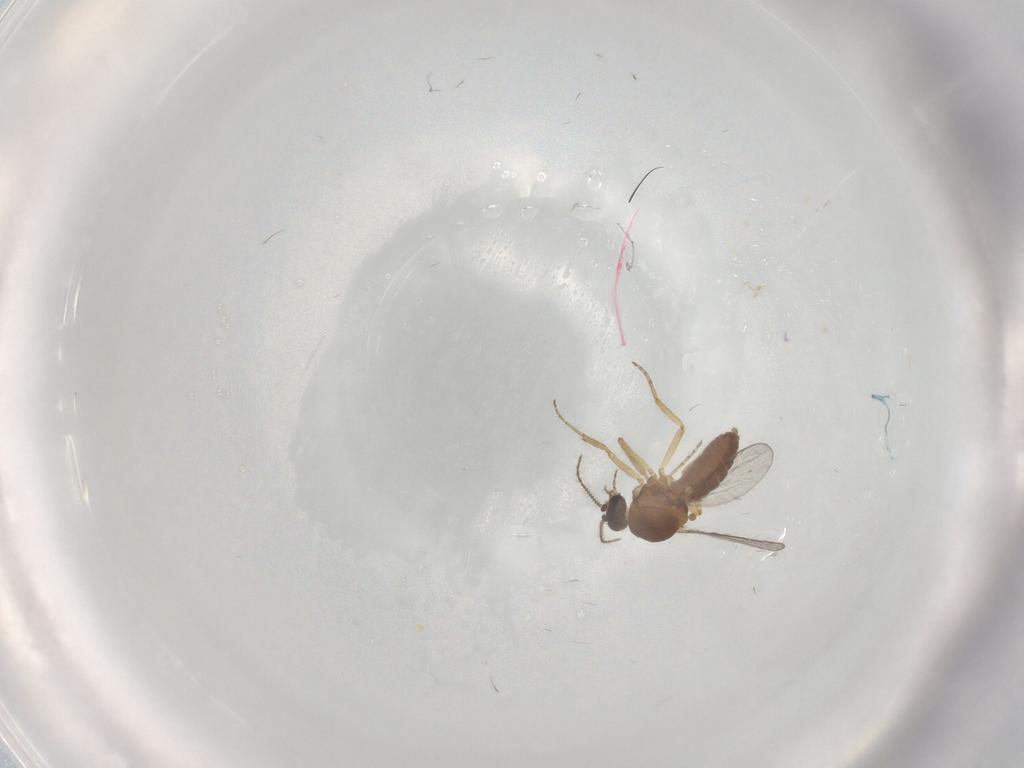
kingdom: Animalia
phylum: Arthropoda
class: Insecta
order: Diptera
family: Ceratopogonidae
